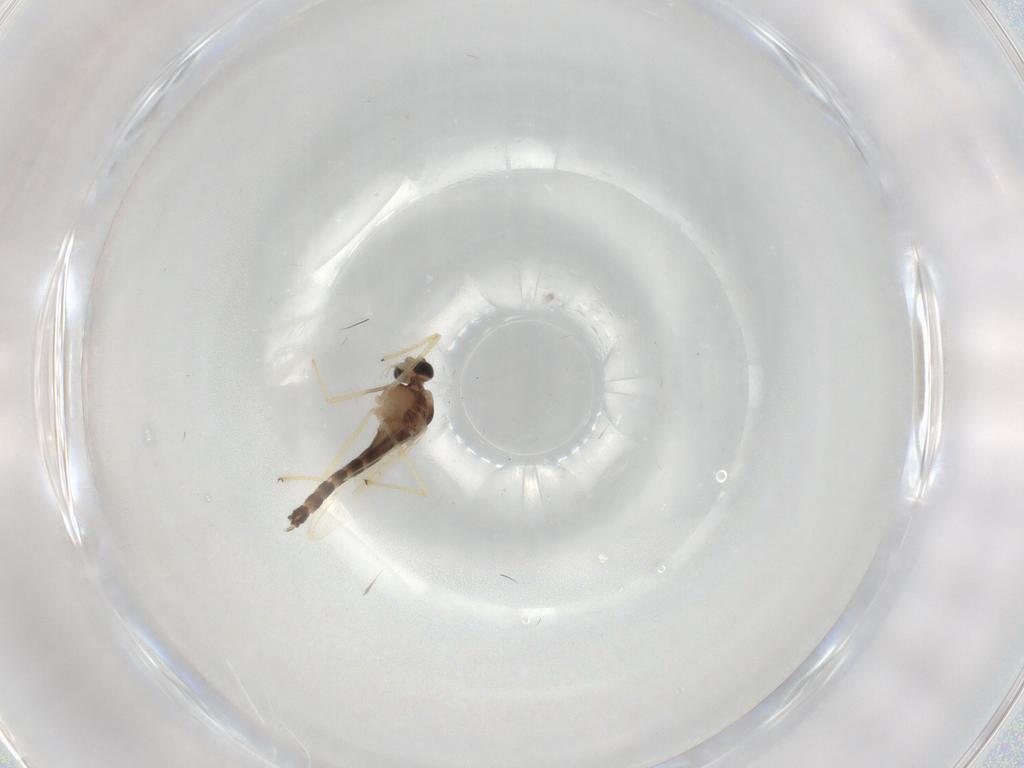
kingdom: Animalia
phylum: Arthropoda
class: Insecta
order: Diptera
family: Chironomidae
